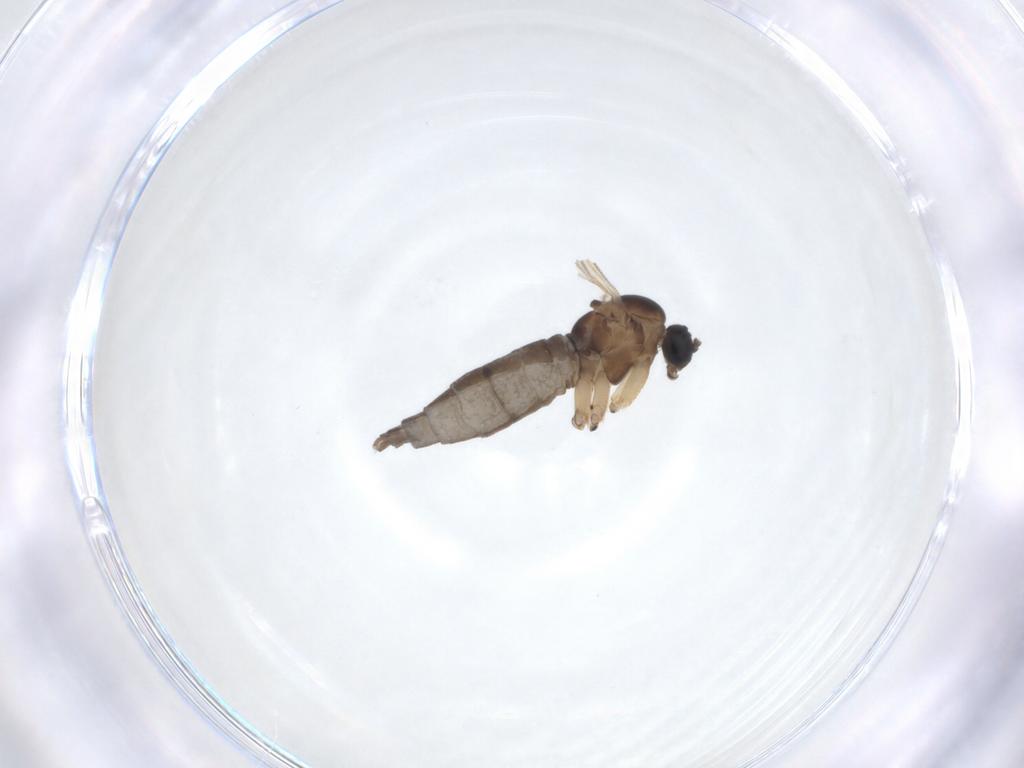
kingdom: Animalia
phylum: Arthropoda
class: Insecta
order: Diptera
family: Sciaridae
